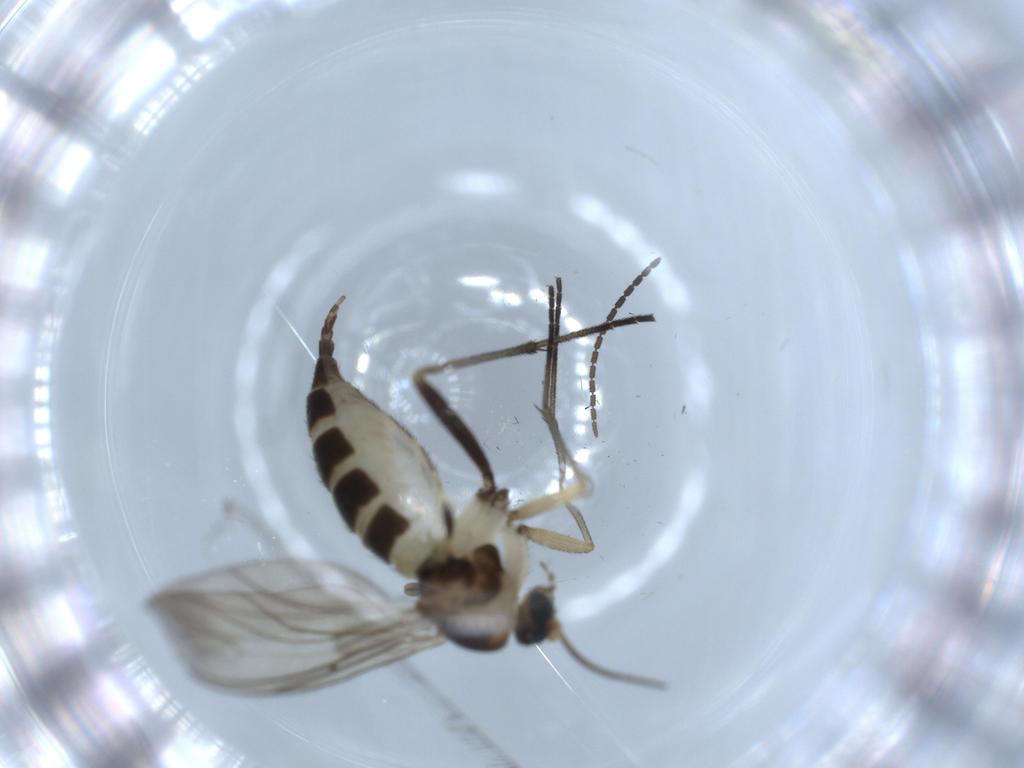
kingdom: Animalia
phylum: Arthropoda
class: Insecta
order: Diptera
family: Sciaridae
